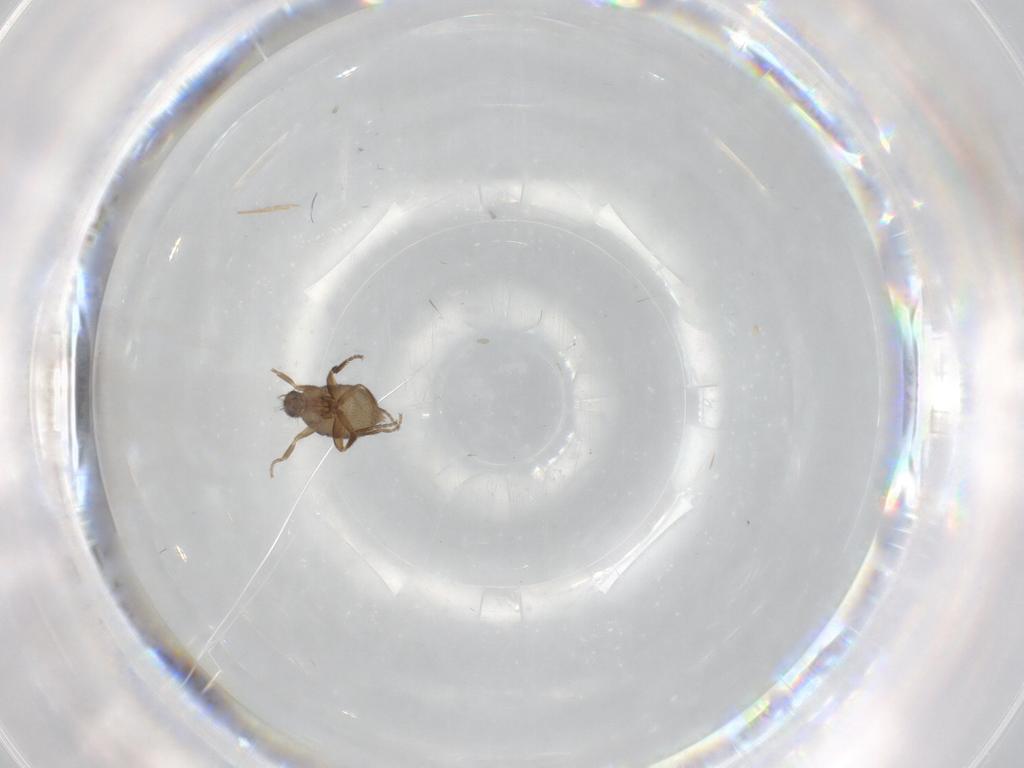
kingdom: Animalia
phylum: Arthropoda
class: Insecta
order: Diptera
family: Phoridae
